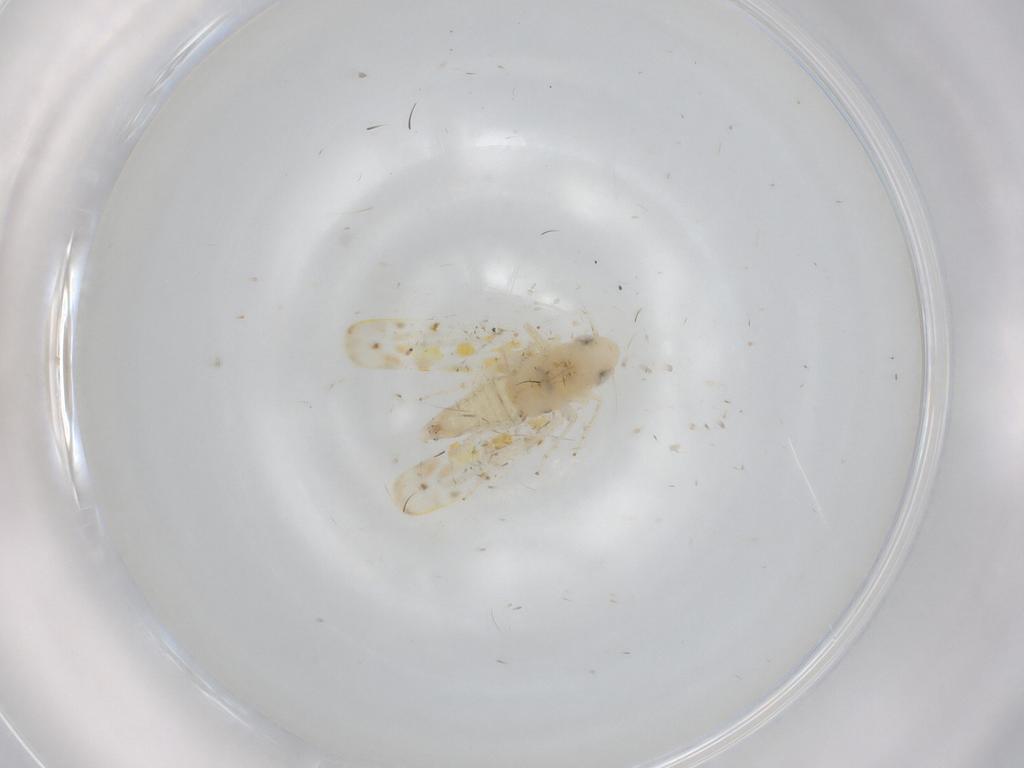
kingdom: Animalia
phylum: Arthropoda
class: Insecta
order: Hemiptera
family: Cicadellidae
